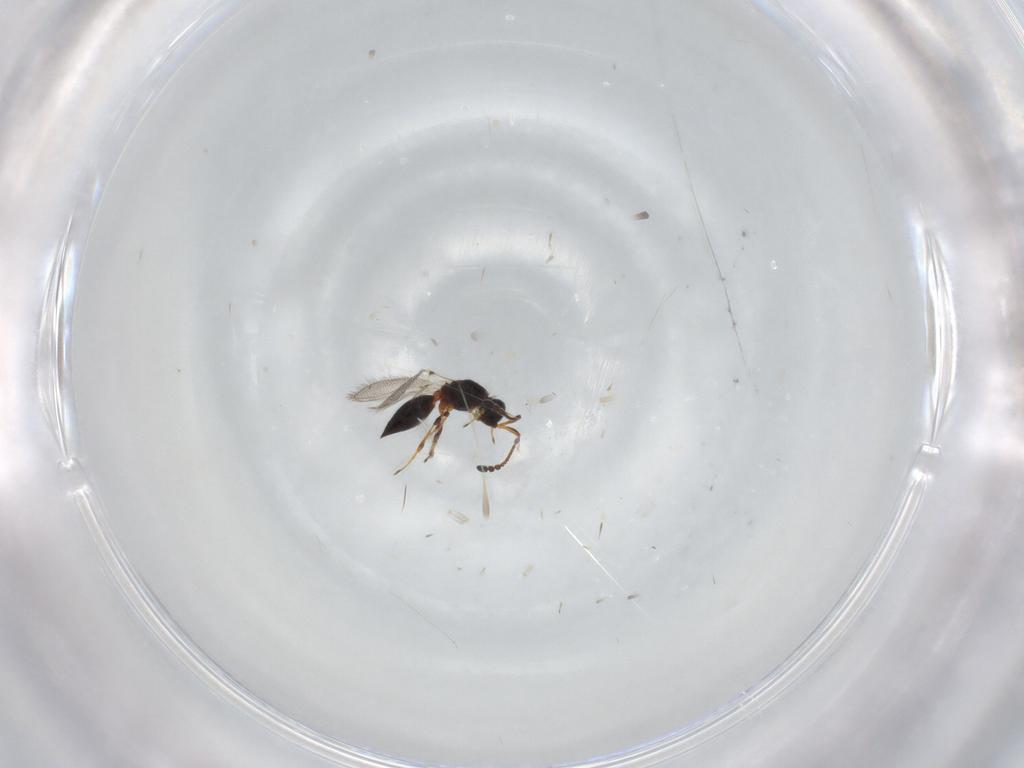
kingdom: Animalia
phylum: Arthropoda
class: Insecta
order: Hymenoptera
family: Diapriidae
